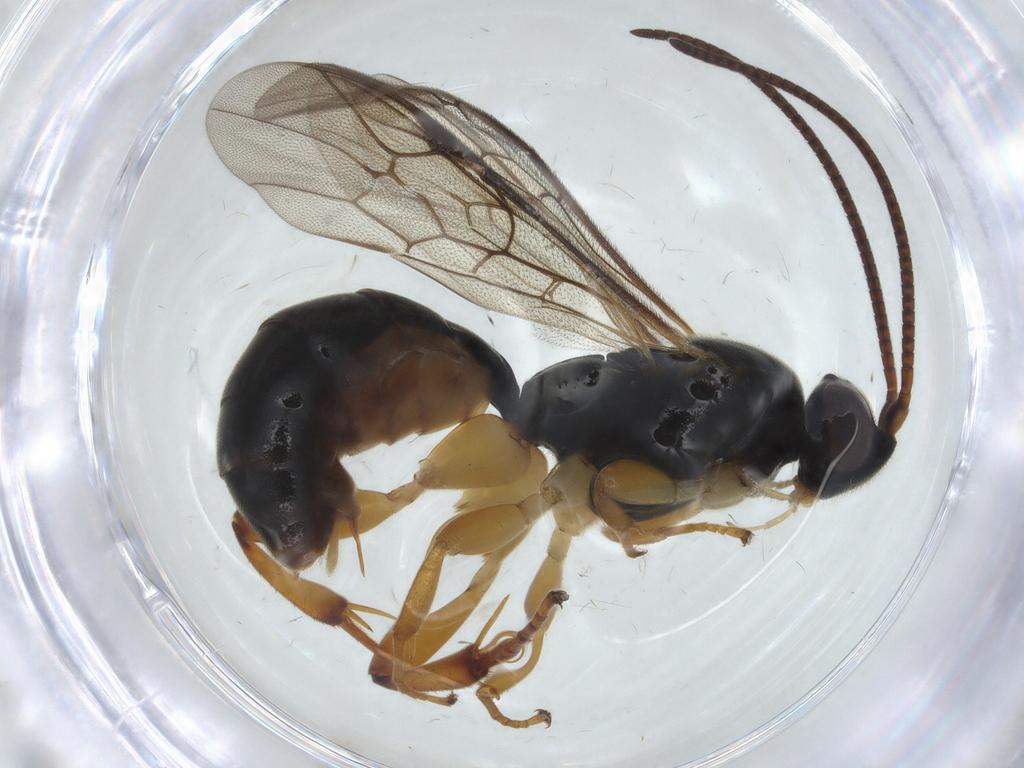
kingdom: Animalia
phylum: Arthropoda
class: Insecta
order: Hymenoptera
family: Ichneumonidae
